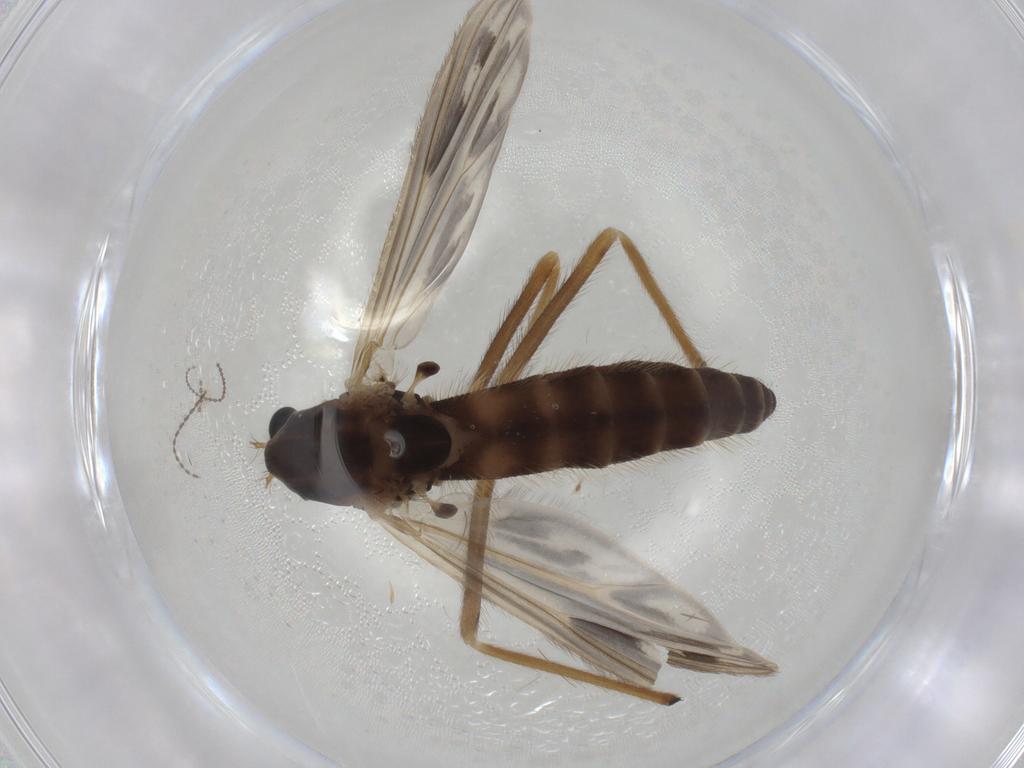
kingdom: Animalia
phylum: Arthropoda
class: Insecta
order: Diptera
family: Chironomidae
